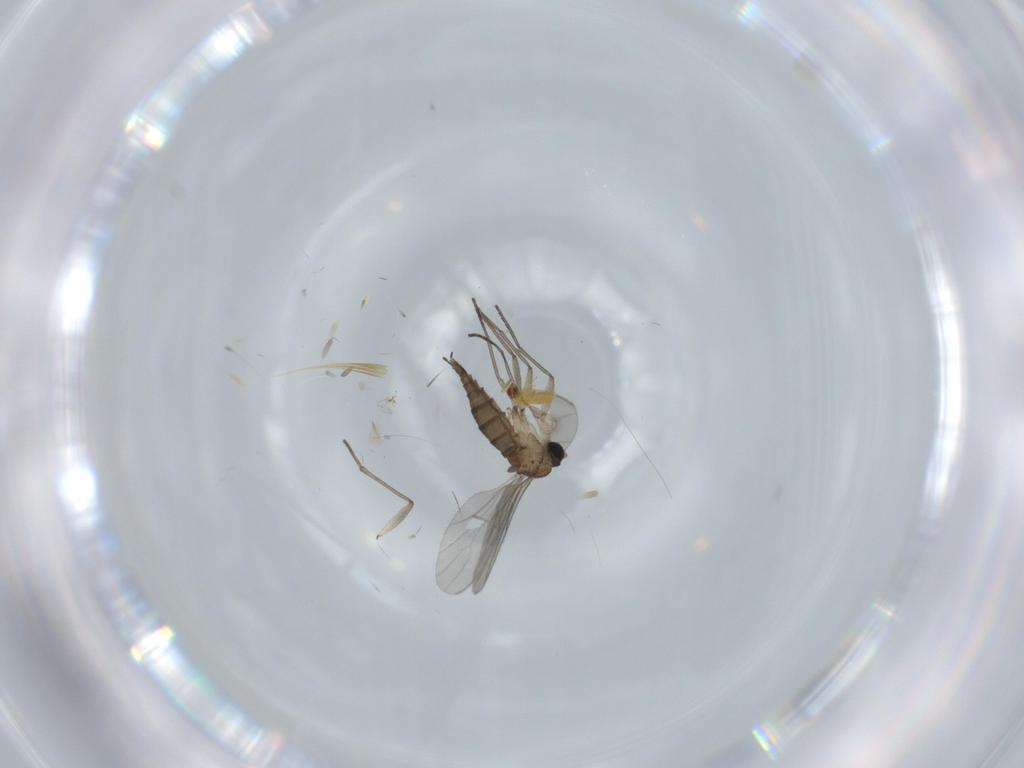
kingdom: Animalia
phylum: Arthropoda
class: Insecta
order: Diptera
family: Sciaridae
